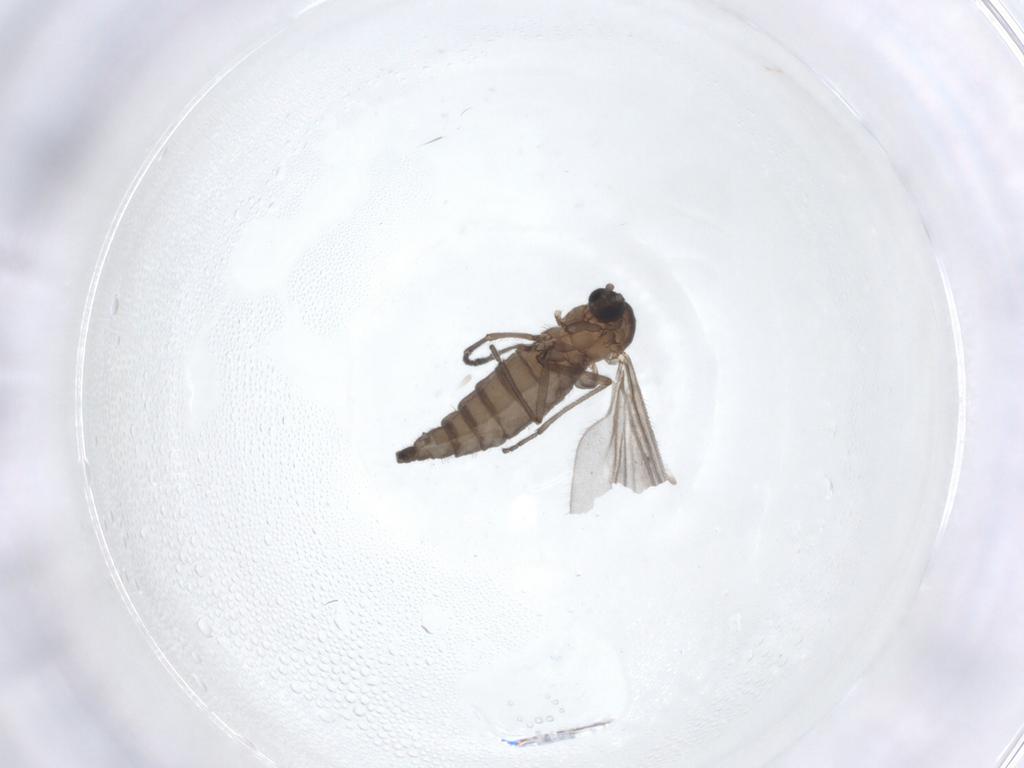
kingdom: Animalia
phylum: Arthropoda
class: Insecta
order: Diptera
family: Sciaridae
